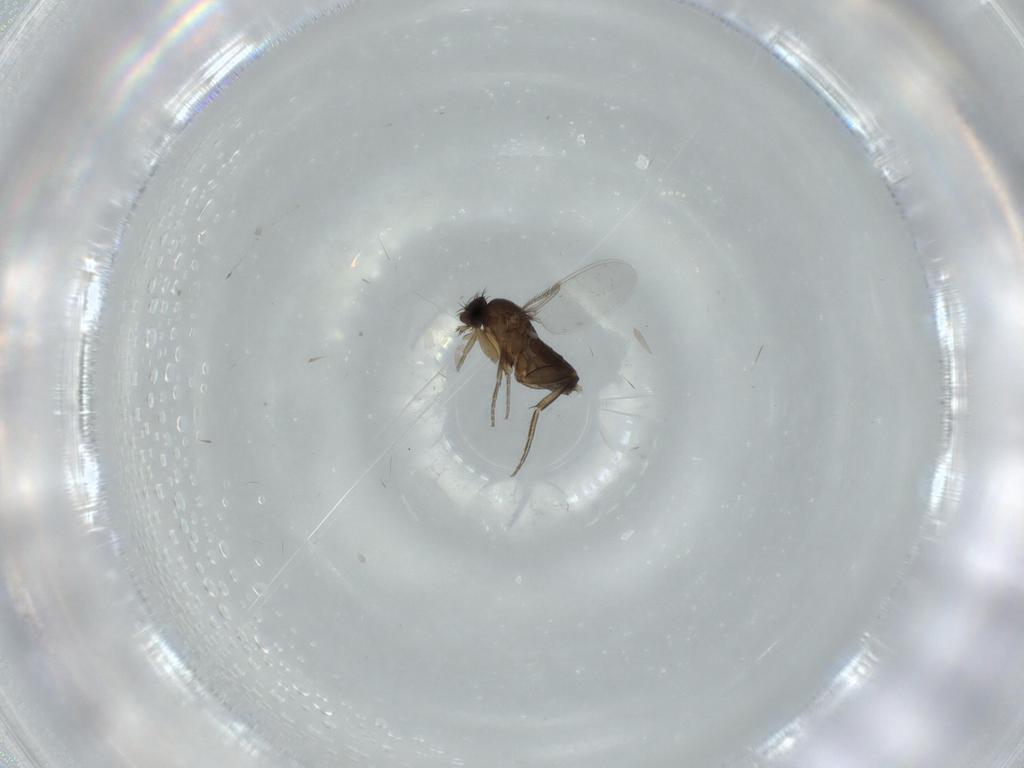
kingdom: Animalia
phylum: Arthropoda
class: Insecta
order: Diptera
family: Phoridae
